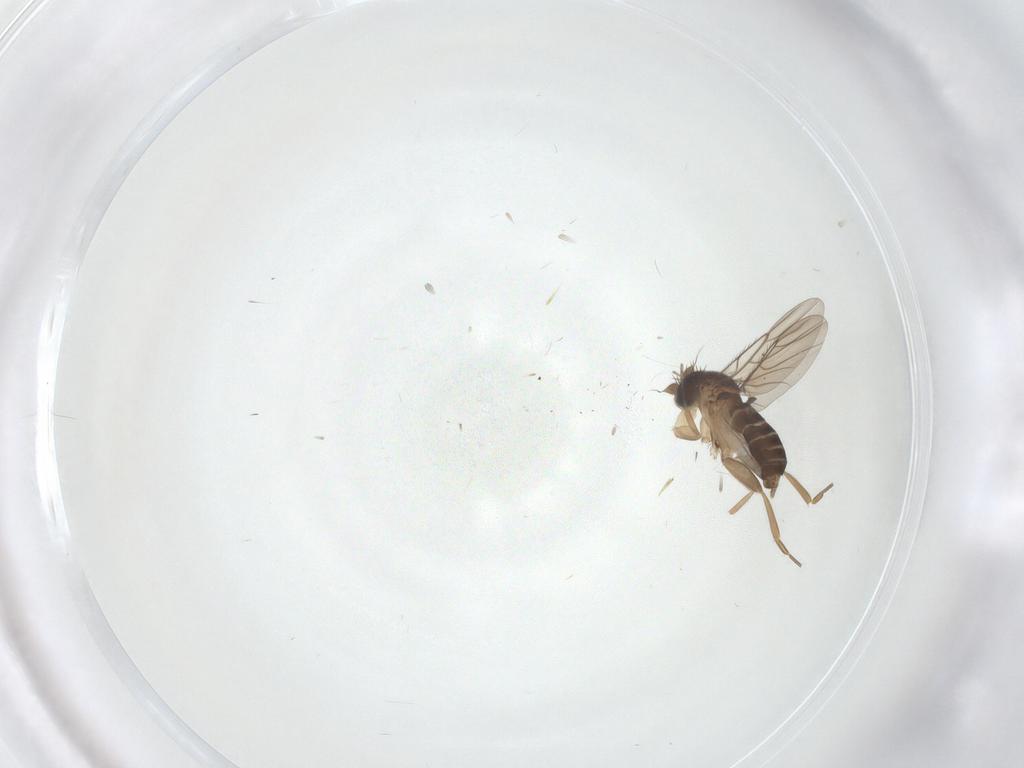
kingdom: Animalia
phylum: Arthropoda
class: Insecta
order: Diptera
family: Phoridae
